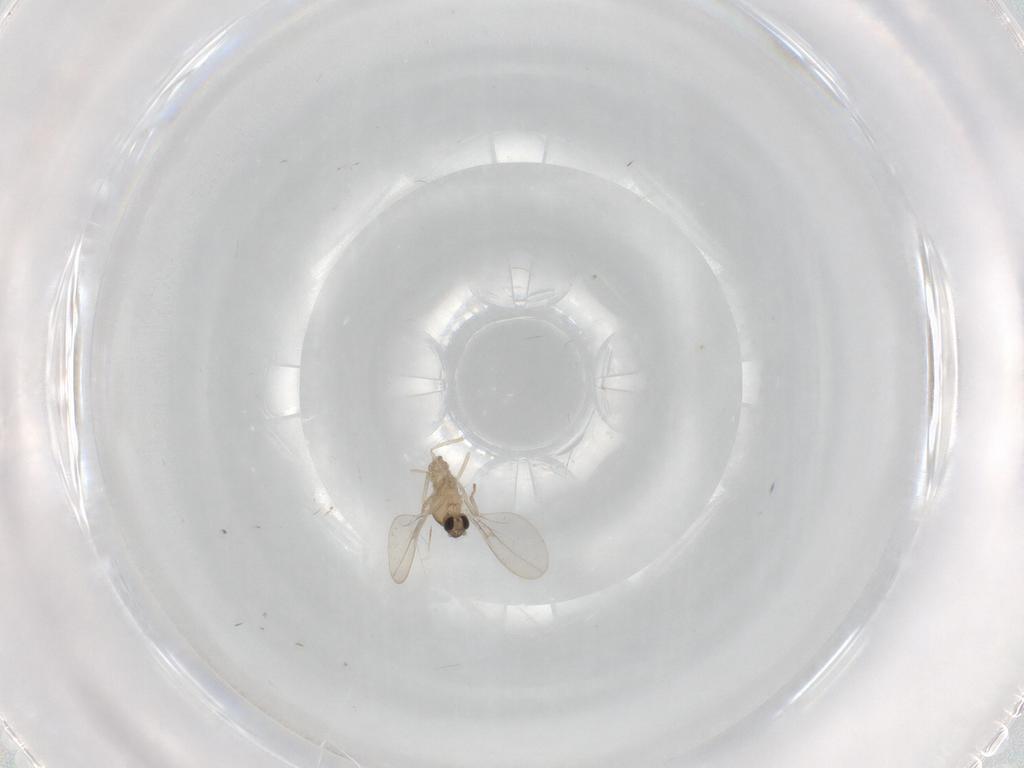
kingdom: Animalia
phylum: Arthropoda
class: Insecta
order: Diptera
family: Cecidomyiidae
